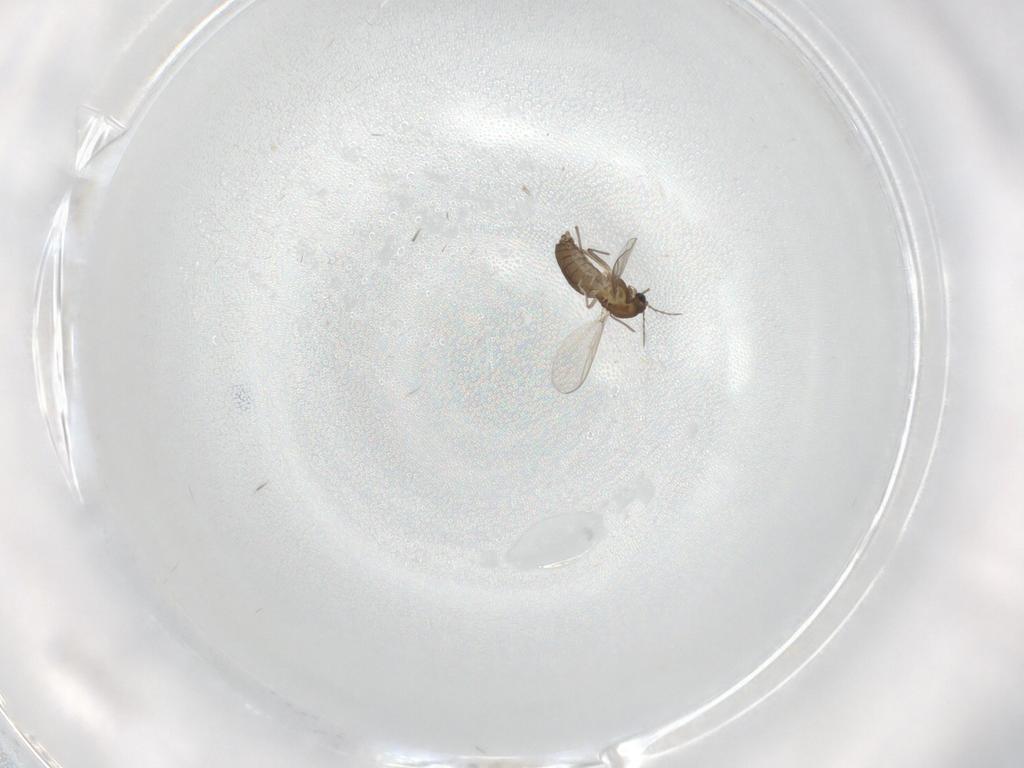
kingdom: Animalia
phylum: Arthropoda
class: Insecta
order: Diptera
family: Chironomidae
